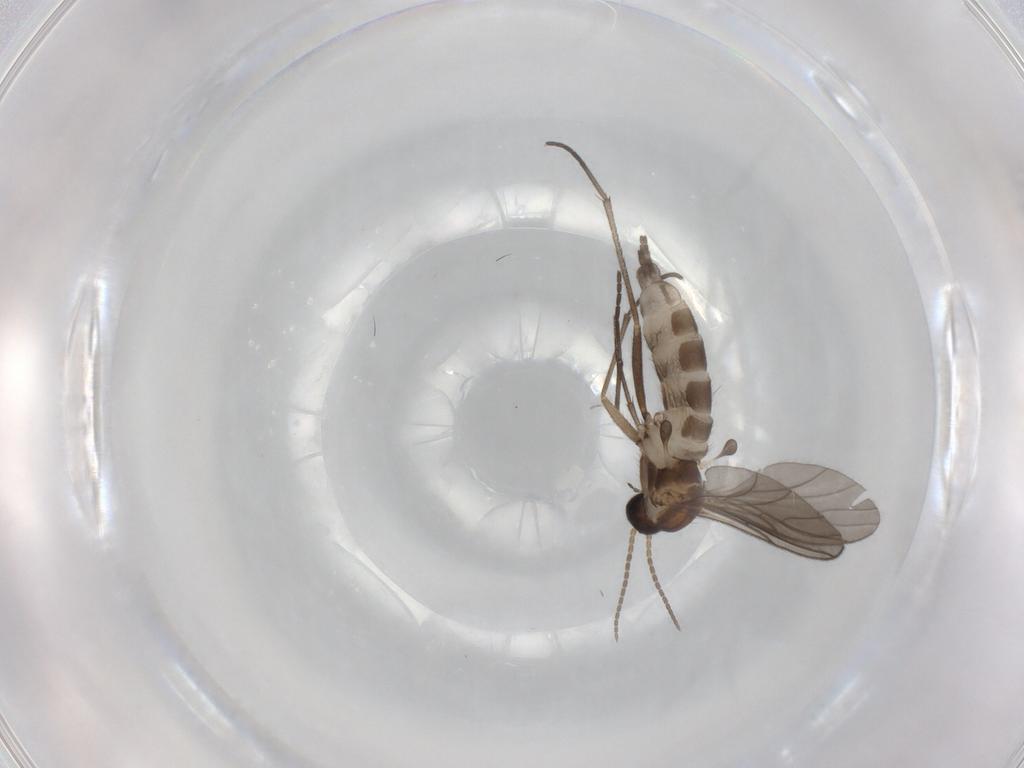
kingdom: Animalia
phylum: Arthropoda
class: Insecta
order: Diptera
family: Sciaridae
